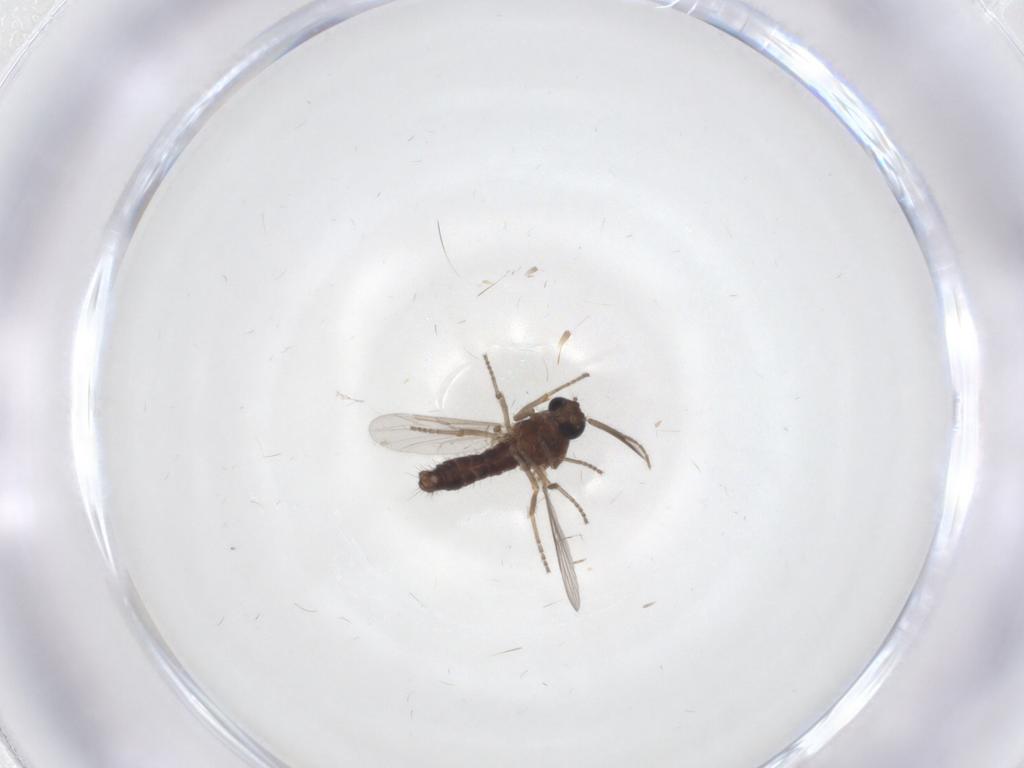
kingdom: Animalia
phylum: Arthropoda
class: Insecta
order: Diptera
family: Ceratopogonidae
